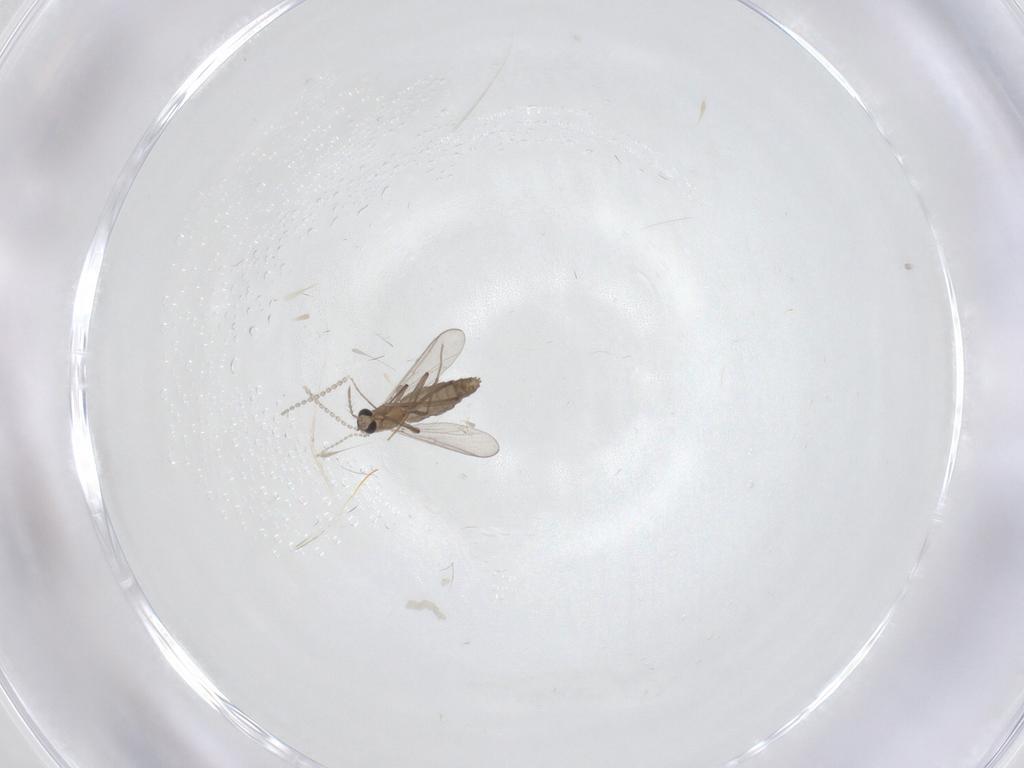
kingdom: Animalia
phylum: Arthropoda
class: Insecta
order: Diptera
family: Chironomidae
